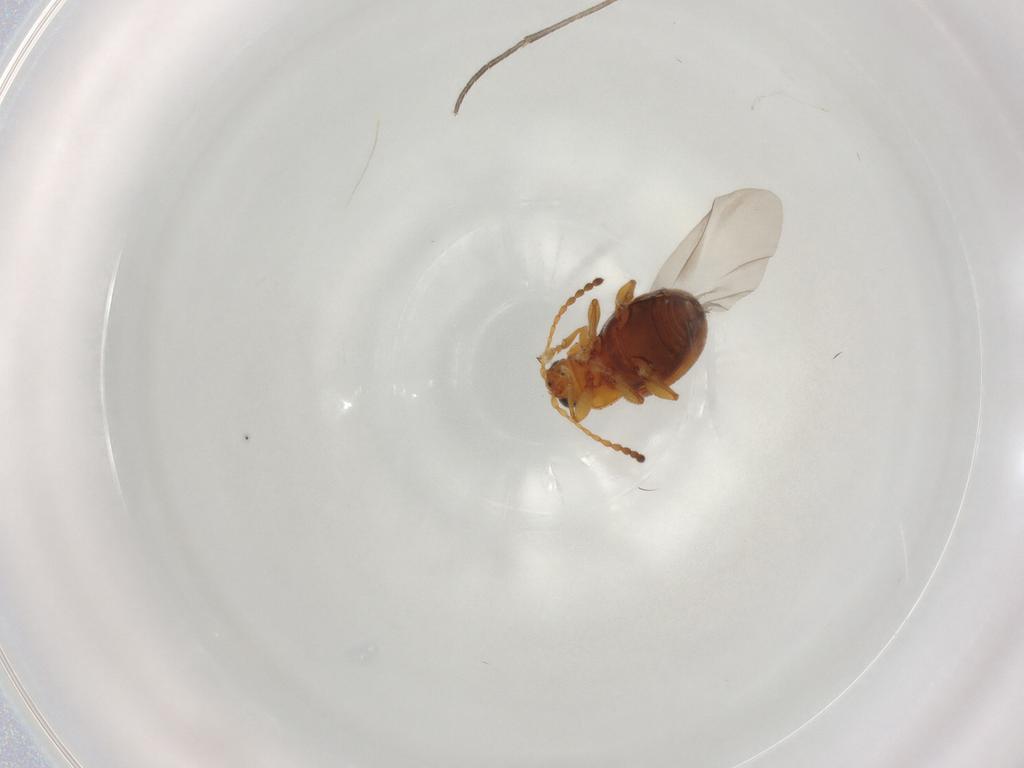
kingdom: Animalia
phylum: Arthropoda
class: Insecta
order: Coleoptera
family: Chrysomelidae
